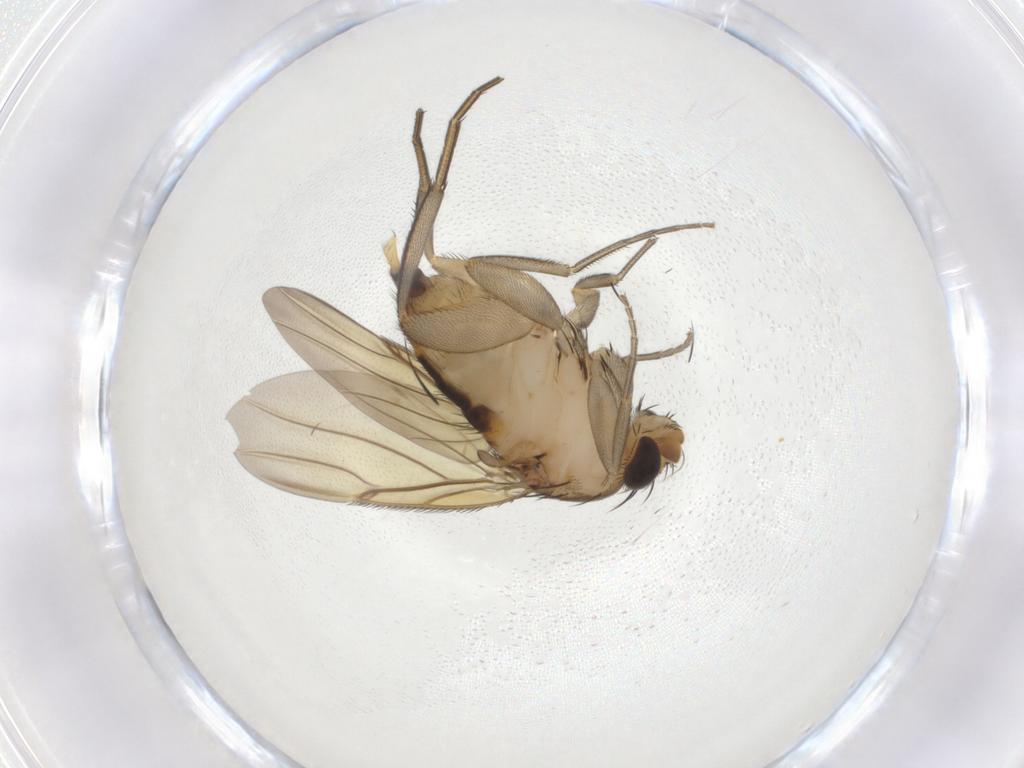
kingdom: Animalia
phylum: Arthropoda
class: Insecta
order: Diptera
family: Phoridae
